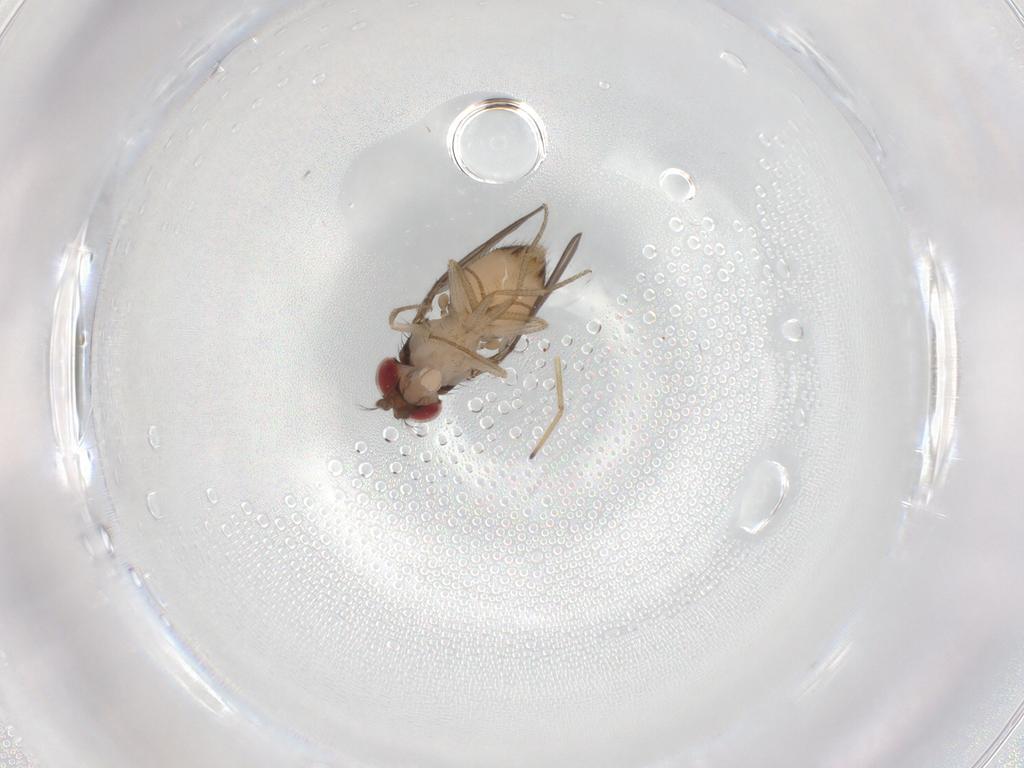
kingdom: Animalia
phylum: Arthropoda
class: Insecta
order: Diptera
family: Drosophilidae
